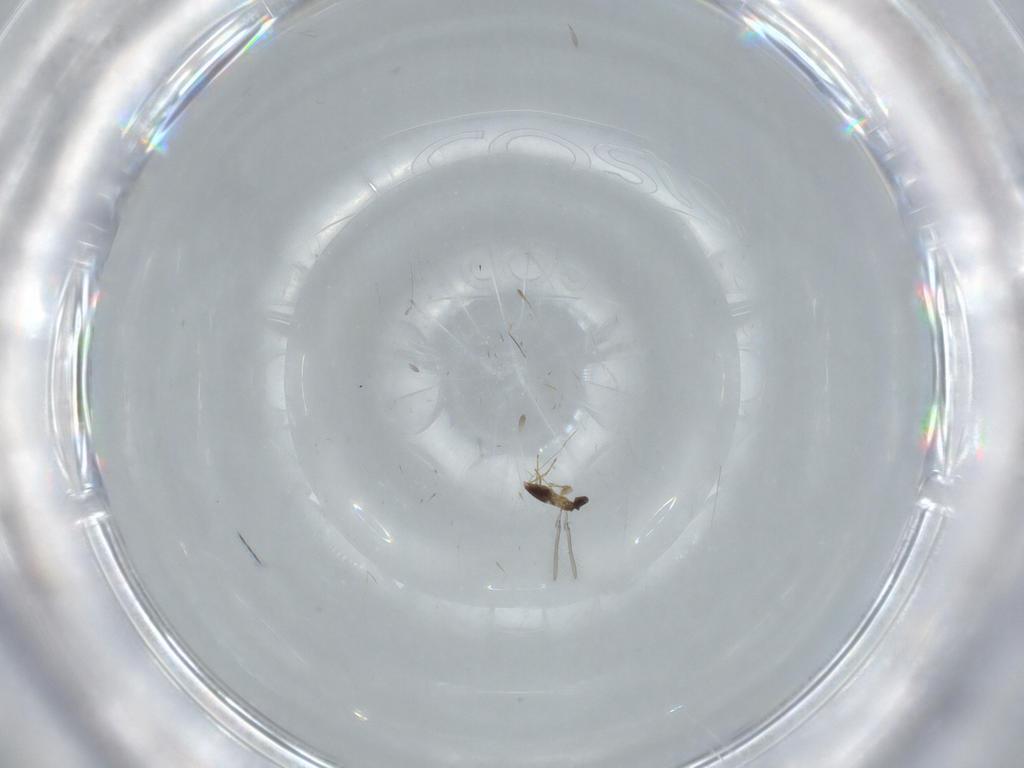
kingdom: Animalia
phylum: Arthropoda
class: Insecta
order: Hymenoptera
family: Mymaridae
